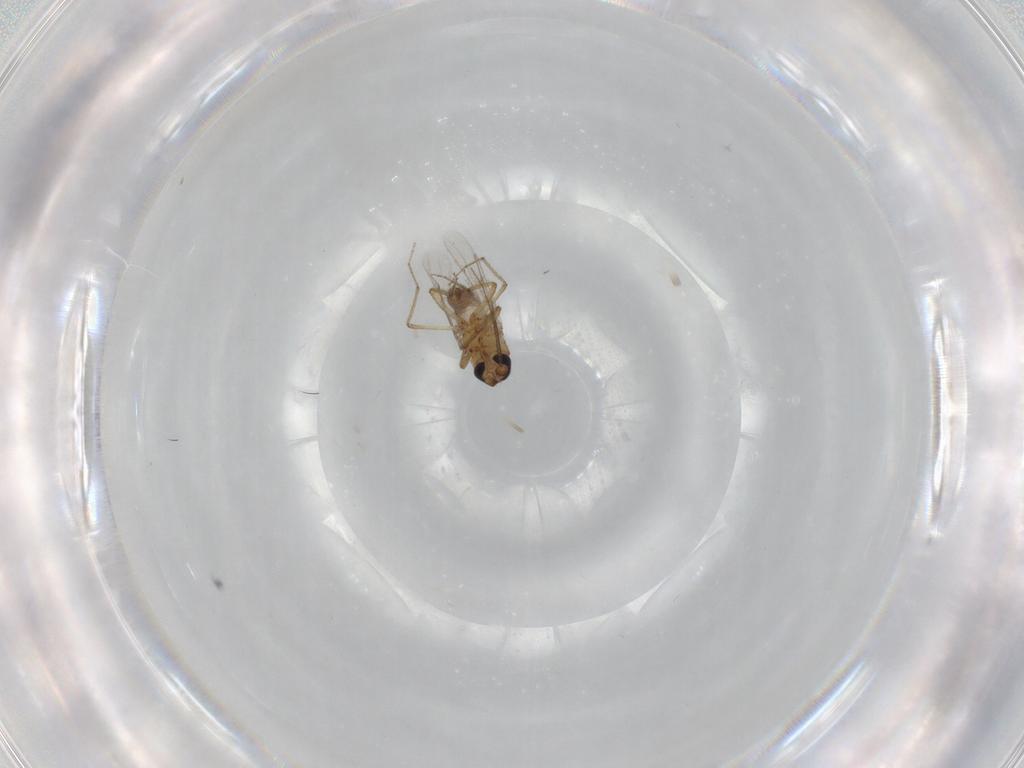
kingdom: Animalia
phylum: Arthropoda
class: Insecta
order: Diptera
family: Ceratopogonidae
